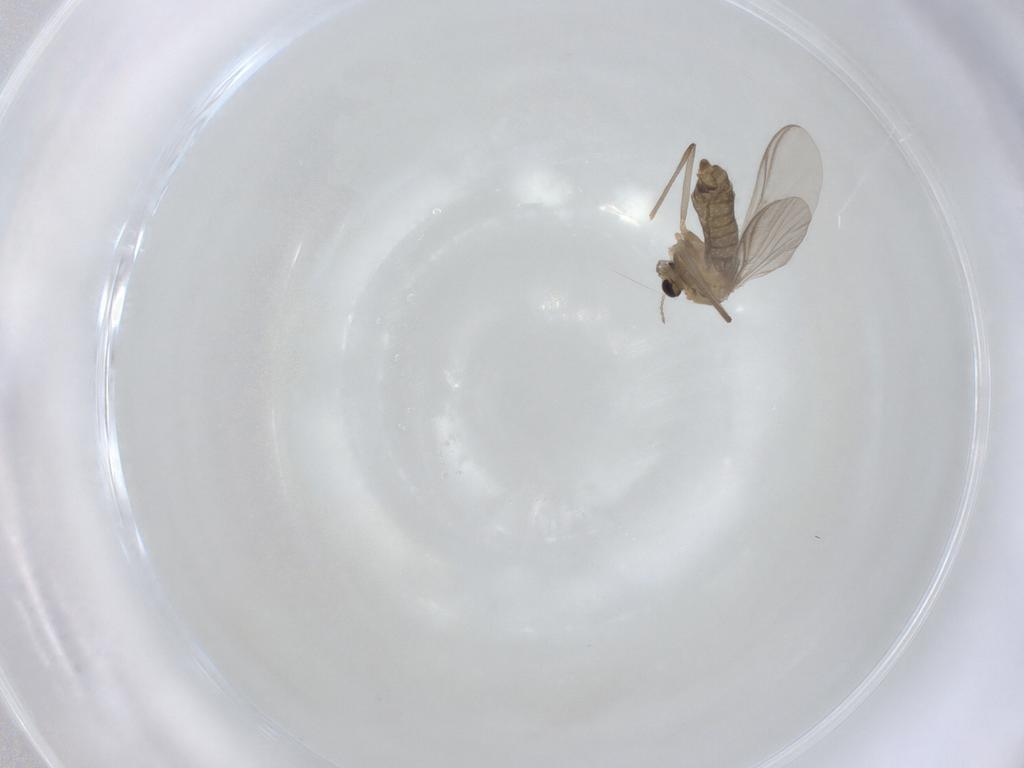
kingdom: Animalia
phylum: Arthropoda
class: Insecta
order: Diptera
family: Chironomidae
